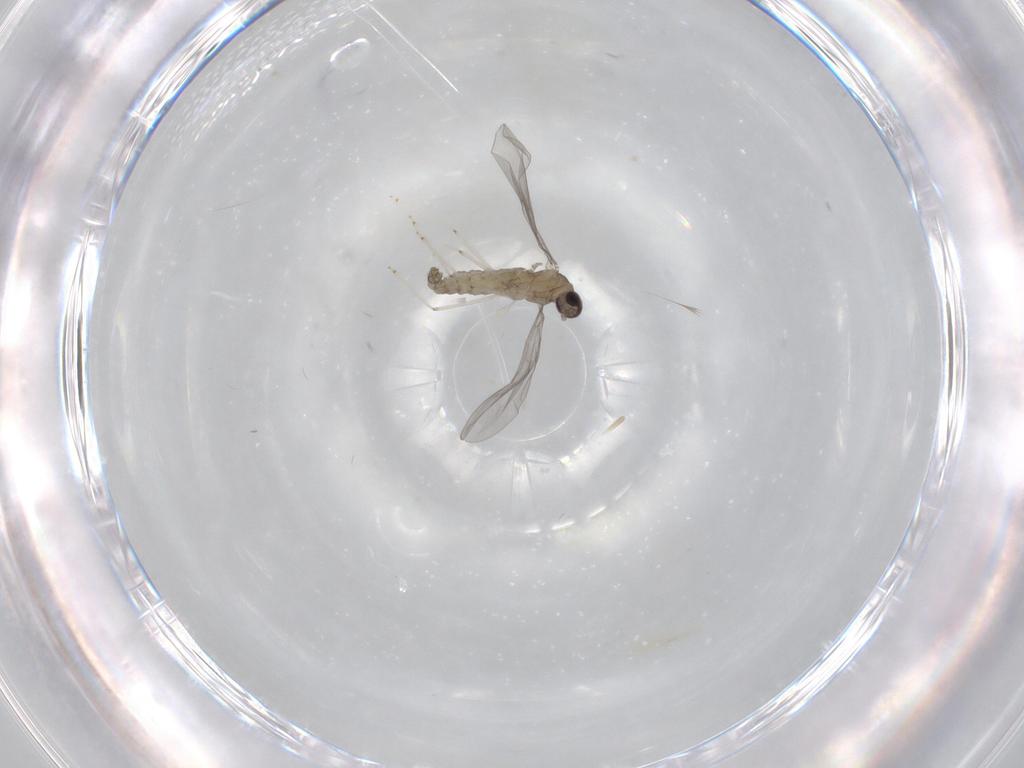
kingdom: Animalia
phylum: Arthropoda
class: Insecta
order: Diptera
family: Cecidomyiidae
